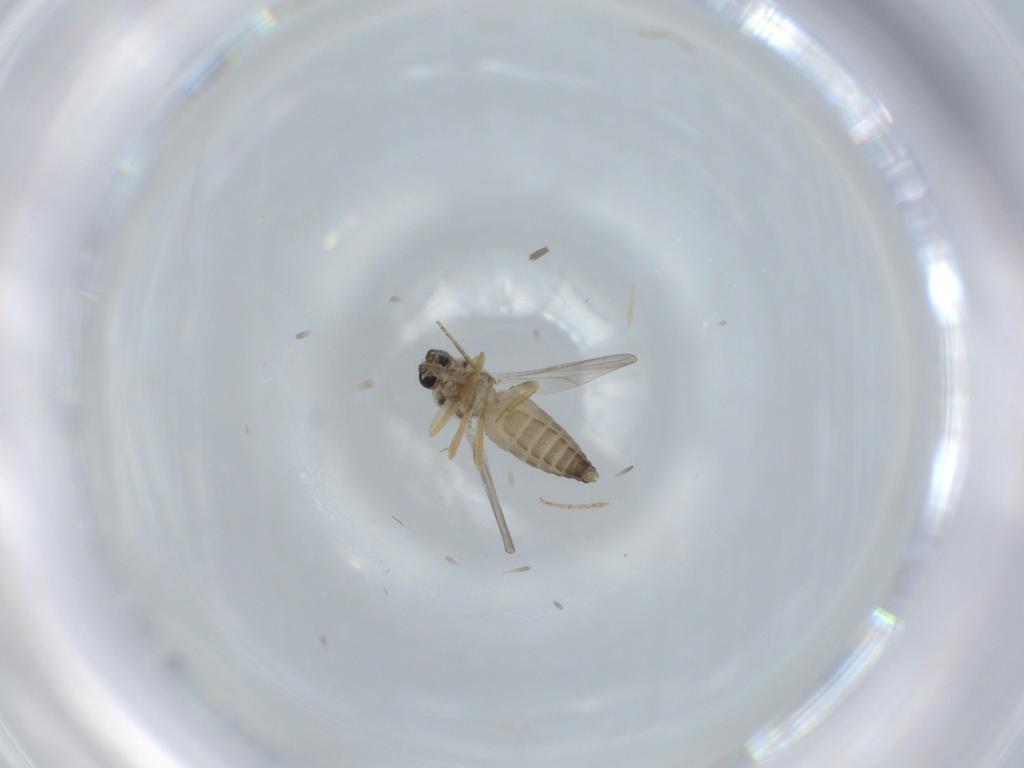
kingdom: Animalia
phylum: Arthropoda
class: Insecta
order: Diptera
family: Ceratopogonidae
